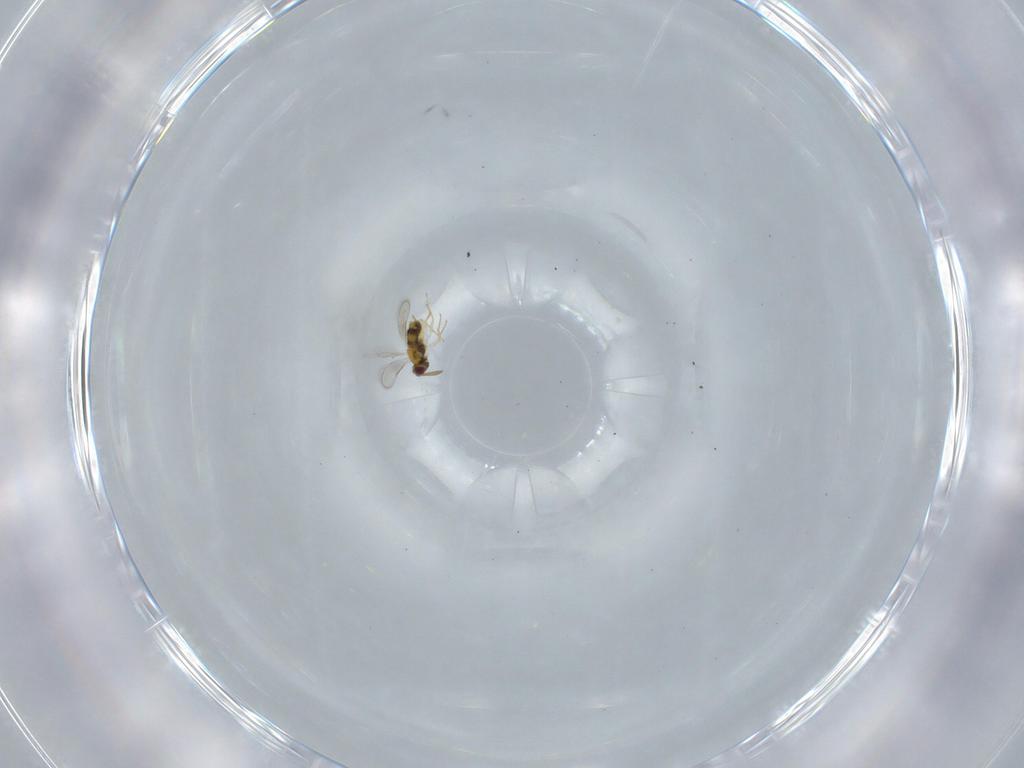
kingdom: Animalia
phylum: Arthropoda
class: Insecta
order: Hymenoptera
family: Aphelinidae
